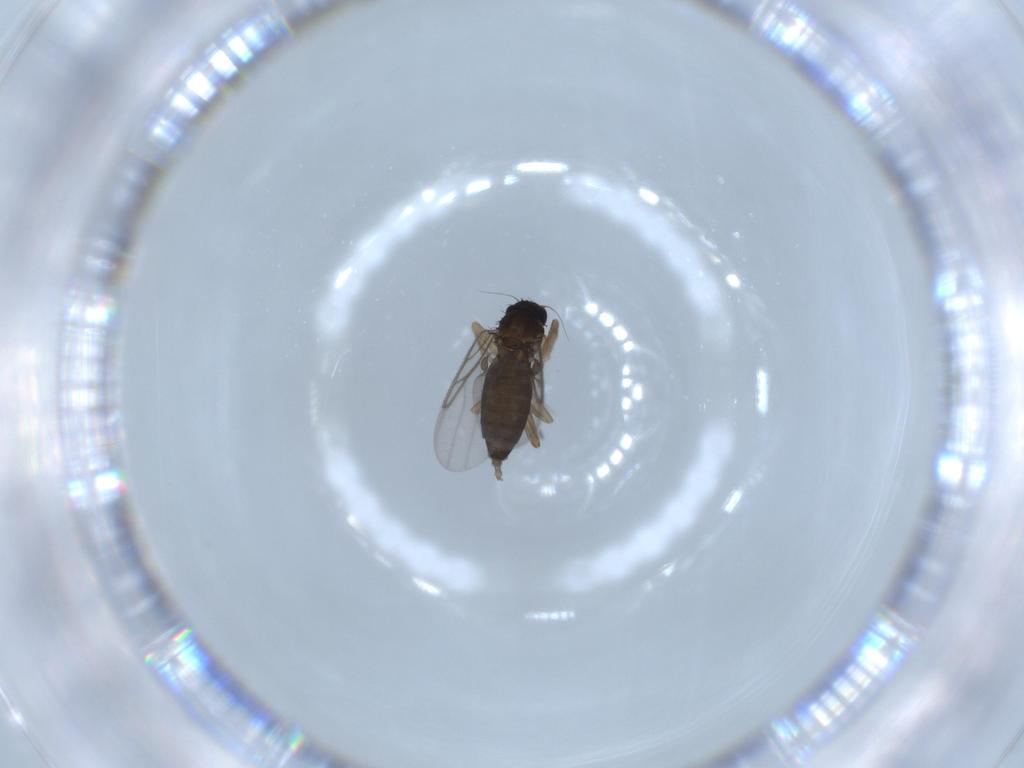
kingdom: Animalia
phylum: Arthropoda
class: Insecta
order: Diptera
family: Phoridae
